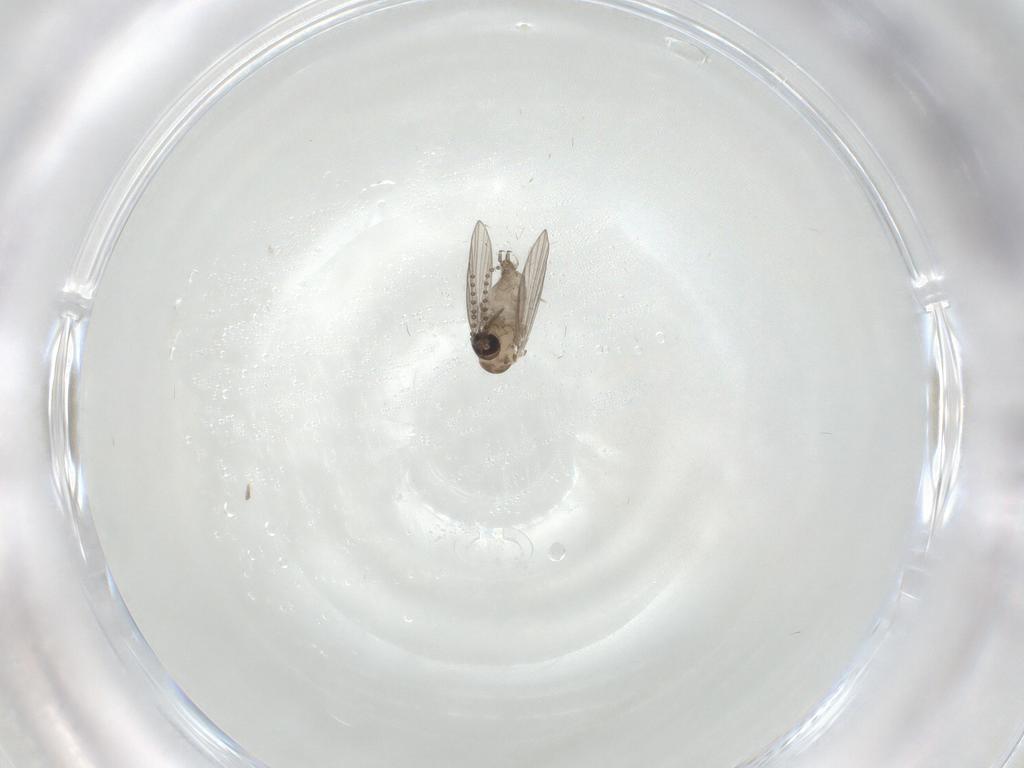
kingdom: Animalia
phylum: Arthropoda
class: Insecta
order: Diptera
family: Psychodidae
